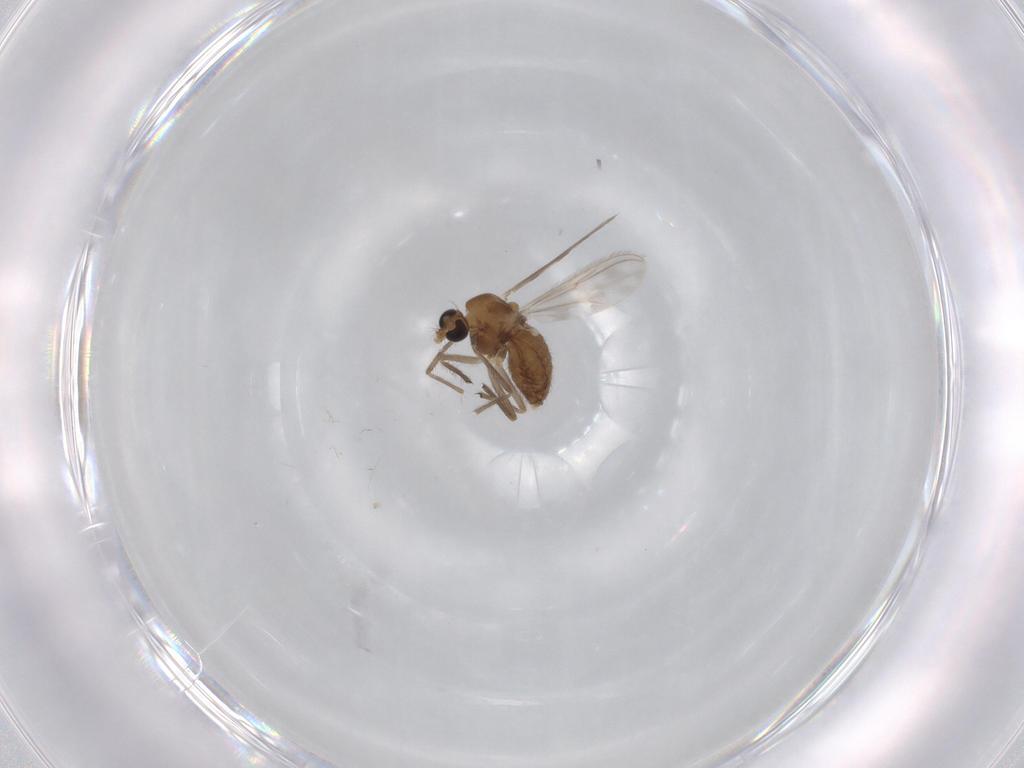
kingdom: Animalia
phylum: Arthropoda
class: Insecta
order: Diptera
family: Chironomidae
